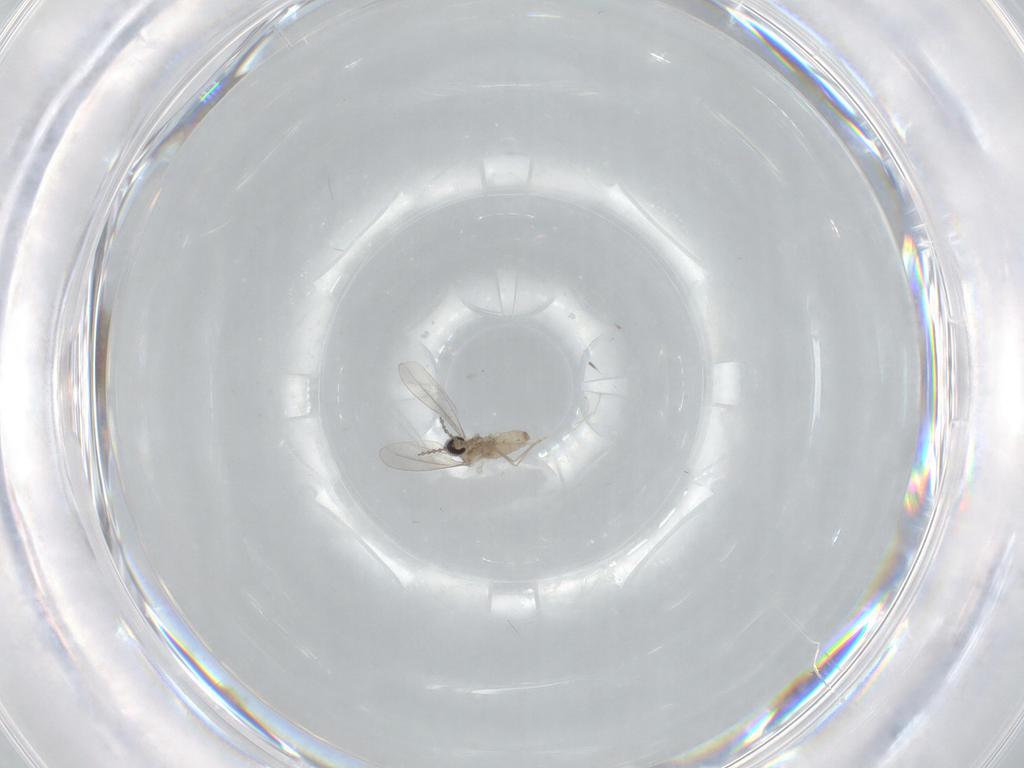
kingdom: Animalia
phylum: Arthropoda
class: Insecta
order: Diptera
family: Cecidomyiidae
